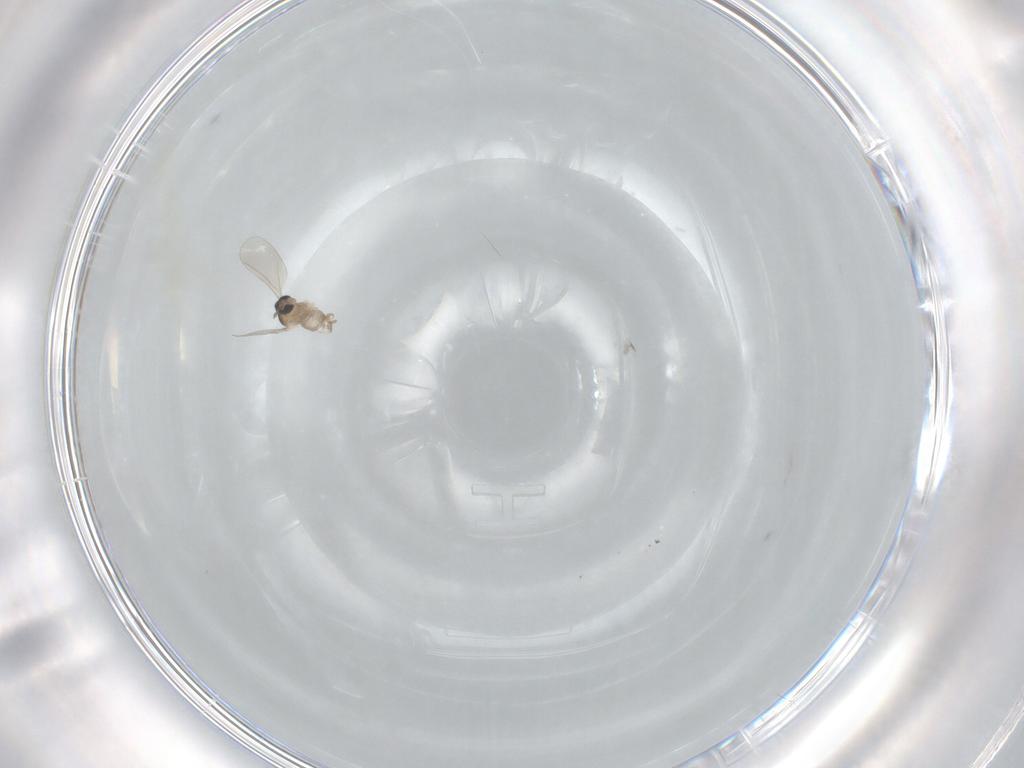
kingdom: Animalia
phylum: Arthropoda
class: Insecta
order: Diptera
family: Cecidomyiidae
